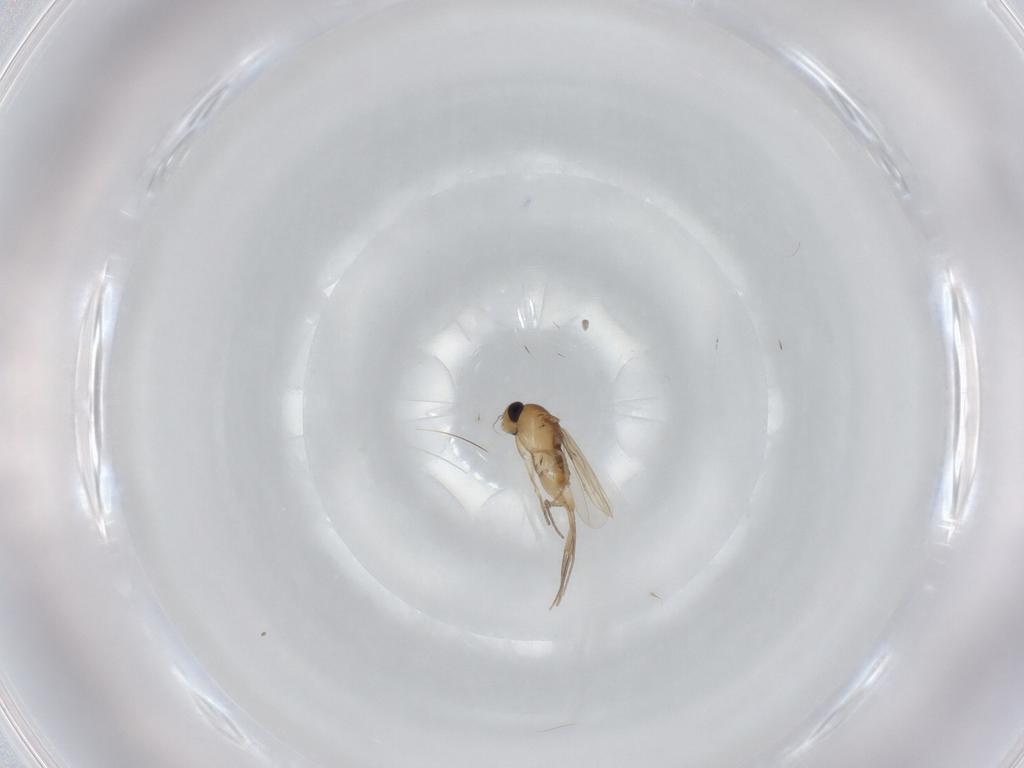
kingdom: Animalia
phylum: Arthropoda
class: Insecta
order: Diptera
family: Phoridae
